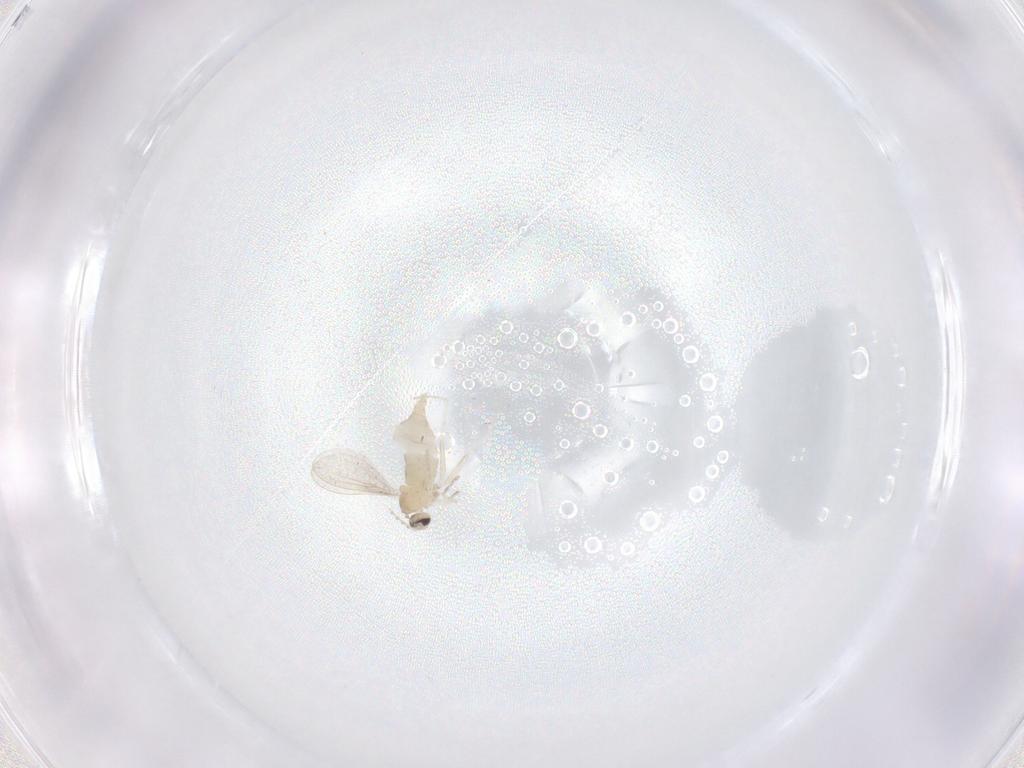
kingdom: Animalia
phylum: Arthropoda
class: Insecta
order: Diptera
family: Cecidomyiidae
